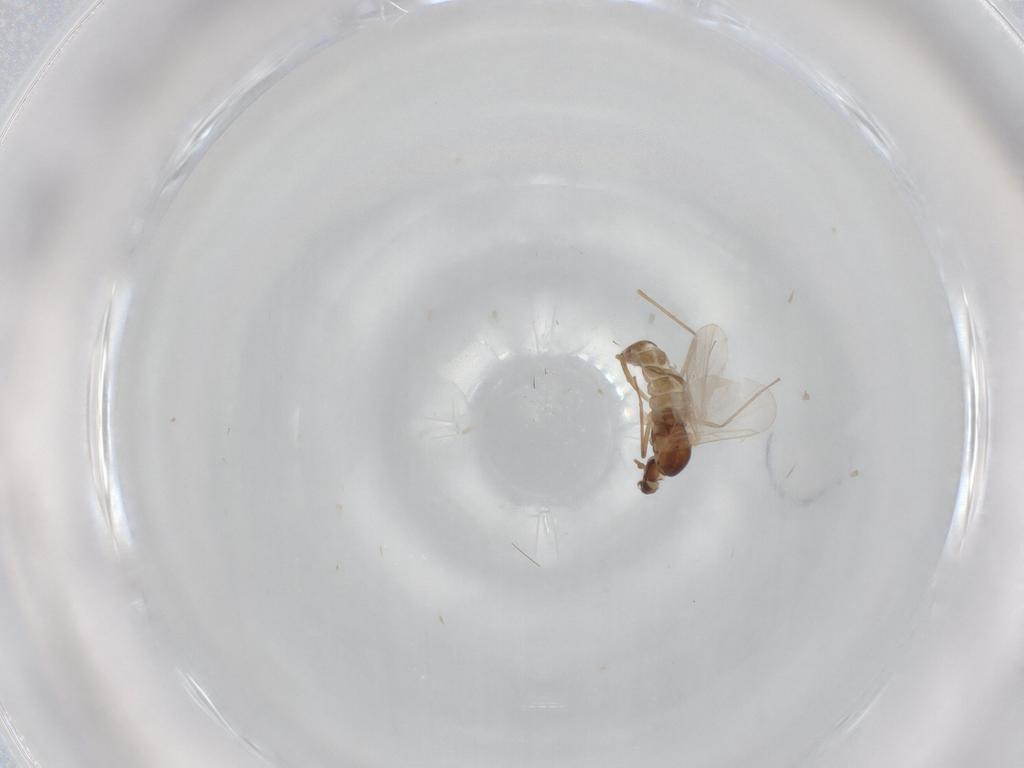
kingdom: Animalia
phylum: Arthropoda
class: Insecta
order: Diptera
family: Cecidomyiidae
